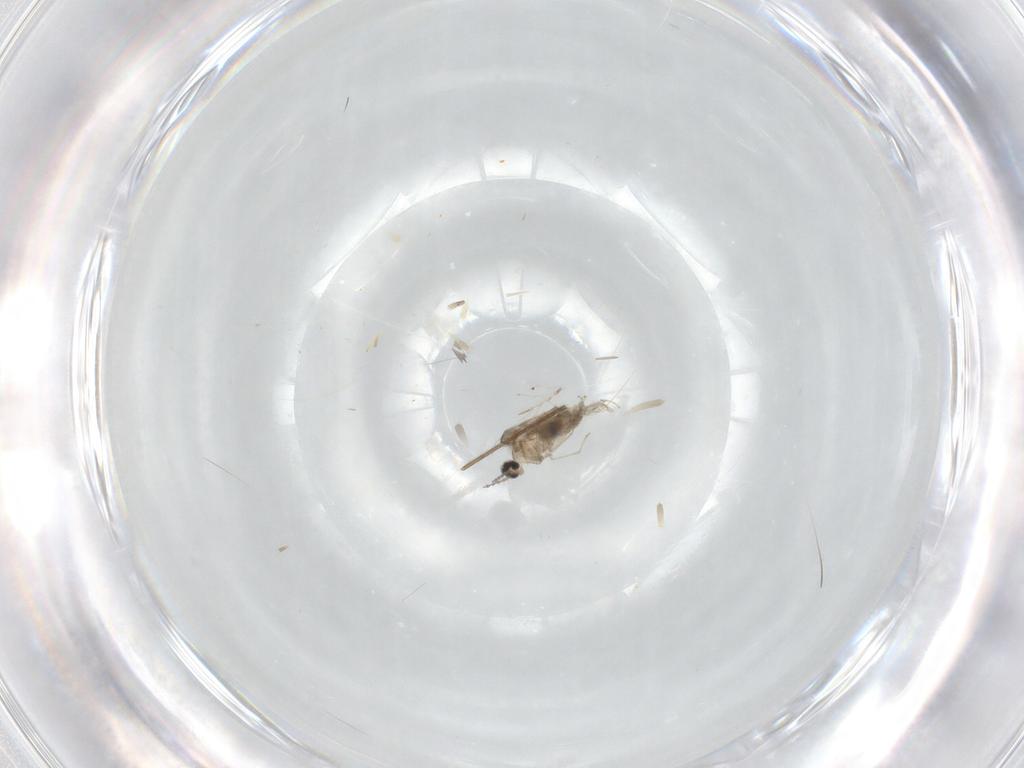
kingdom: Animalia
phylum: Arthropoda
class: Insecta
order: Diptera
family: Cecidomyiidae
